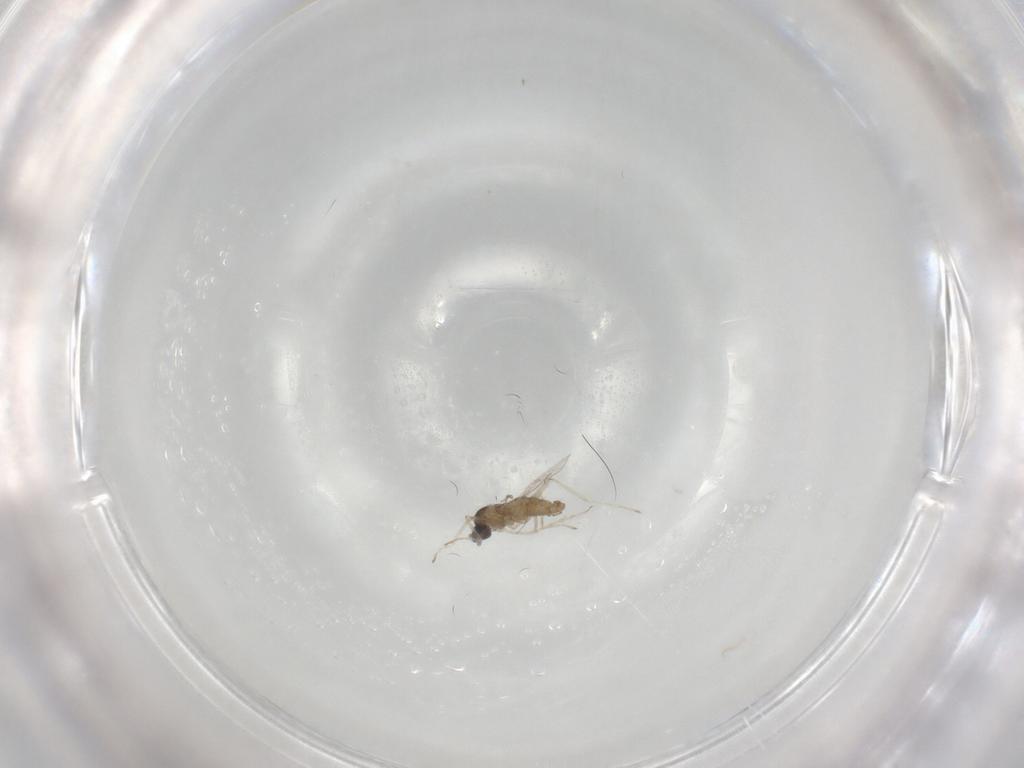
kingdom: Animalia
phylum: Arthropoda
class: Insecta
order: Diptera
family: Cecidomyiidae
